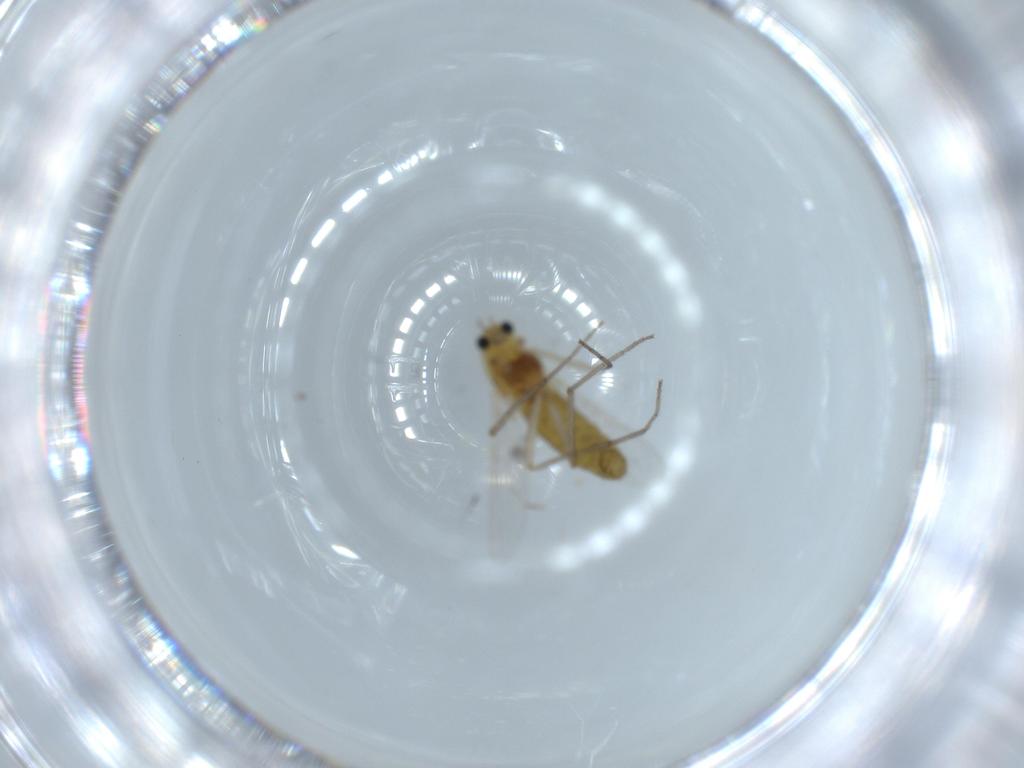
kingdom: Animalia
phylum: Arthropoda
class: Insecta
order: Diptera
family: Chironomidae
